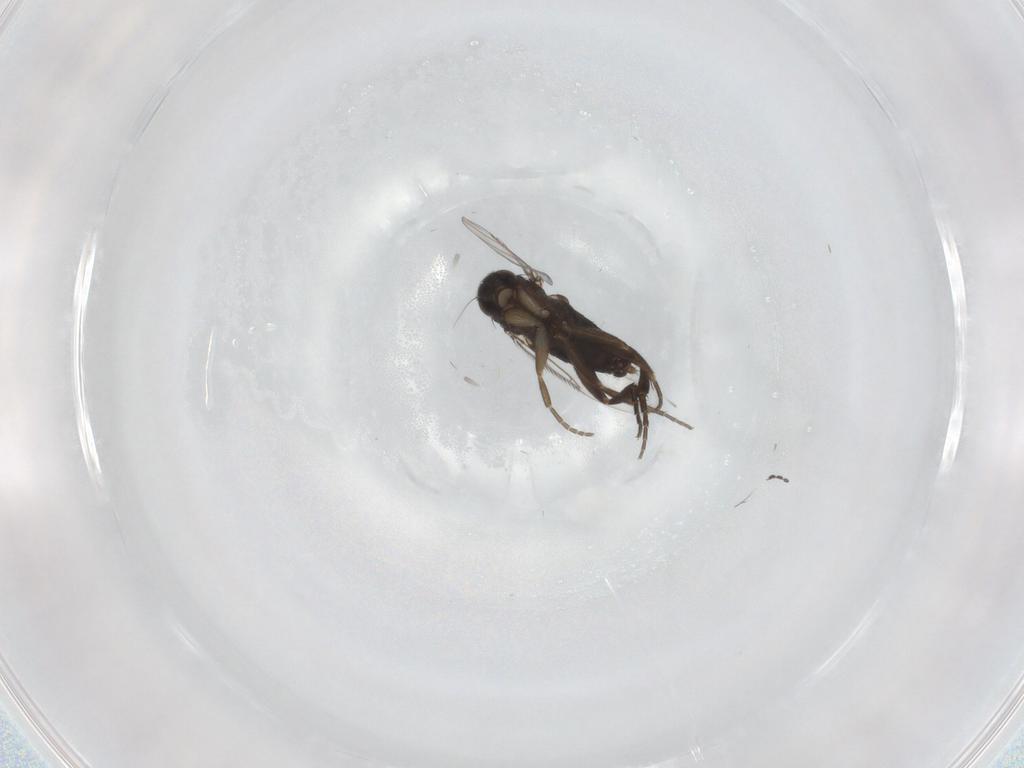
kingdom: Animalia
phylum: Arthropoda
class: Insecta
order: Diptera
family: Phoridae
